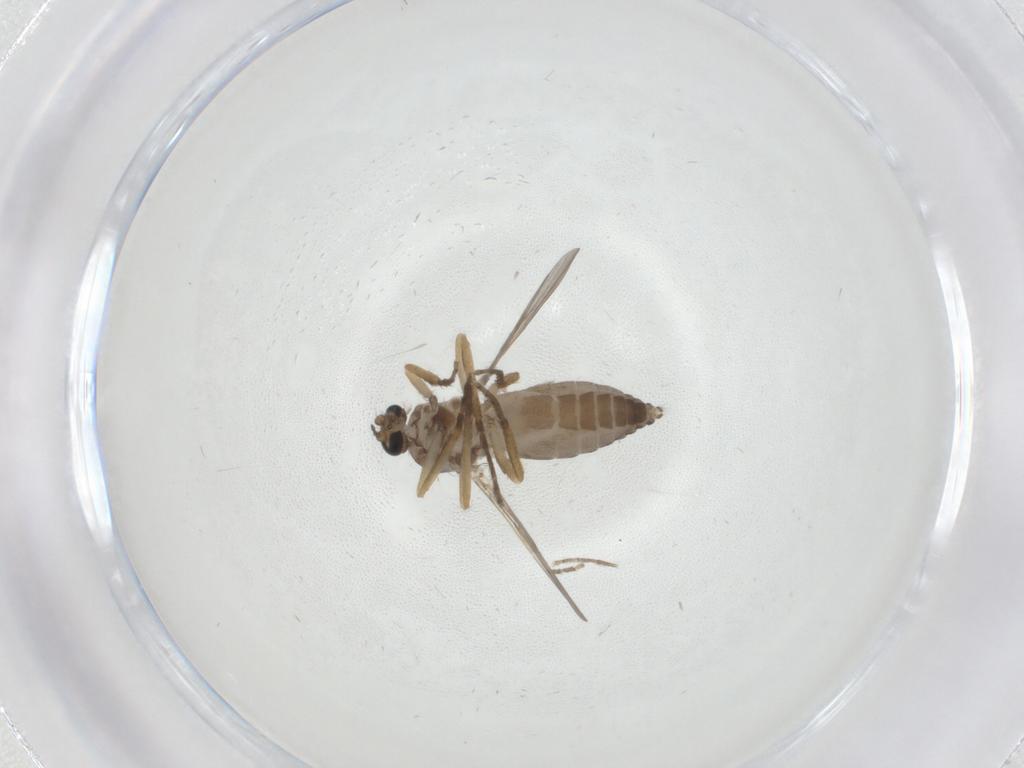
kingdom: Animalia
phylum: Arthropoda
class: Insecta
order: Diptera
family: Ceratopogonidae
